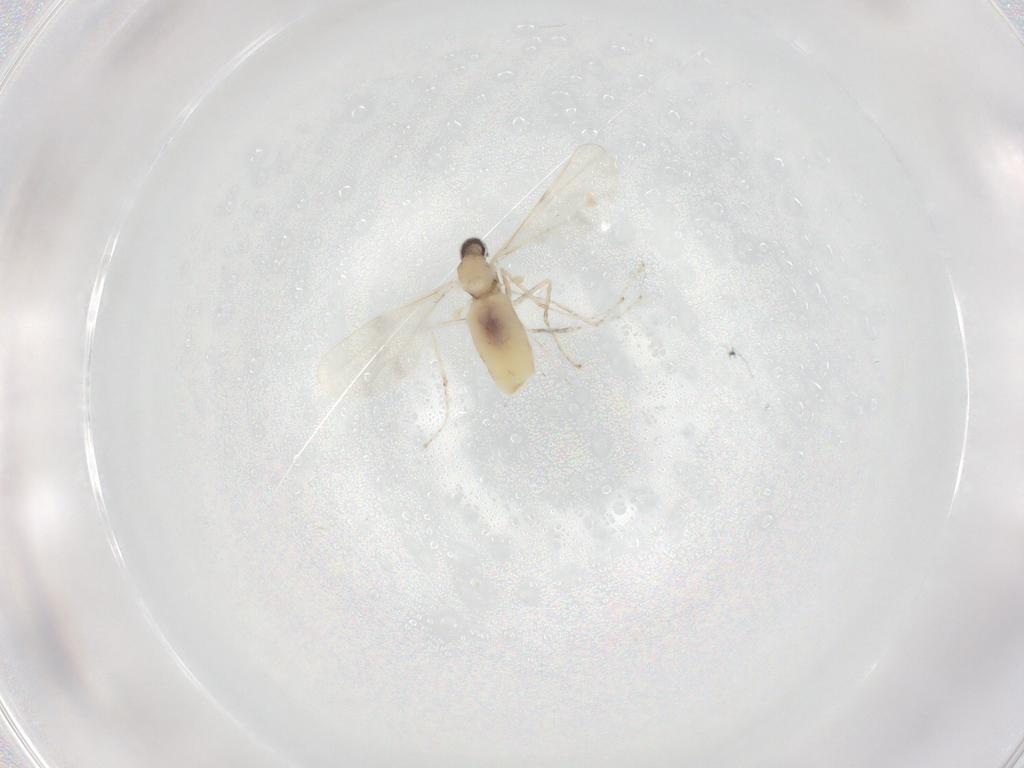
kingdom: Animalia
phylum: Arthropoda
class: Insecta
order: Diptera
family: Cecidomyiidae
